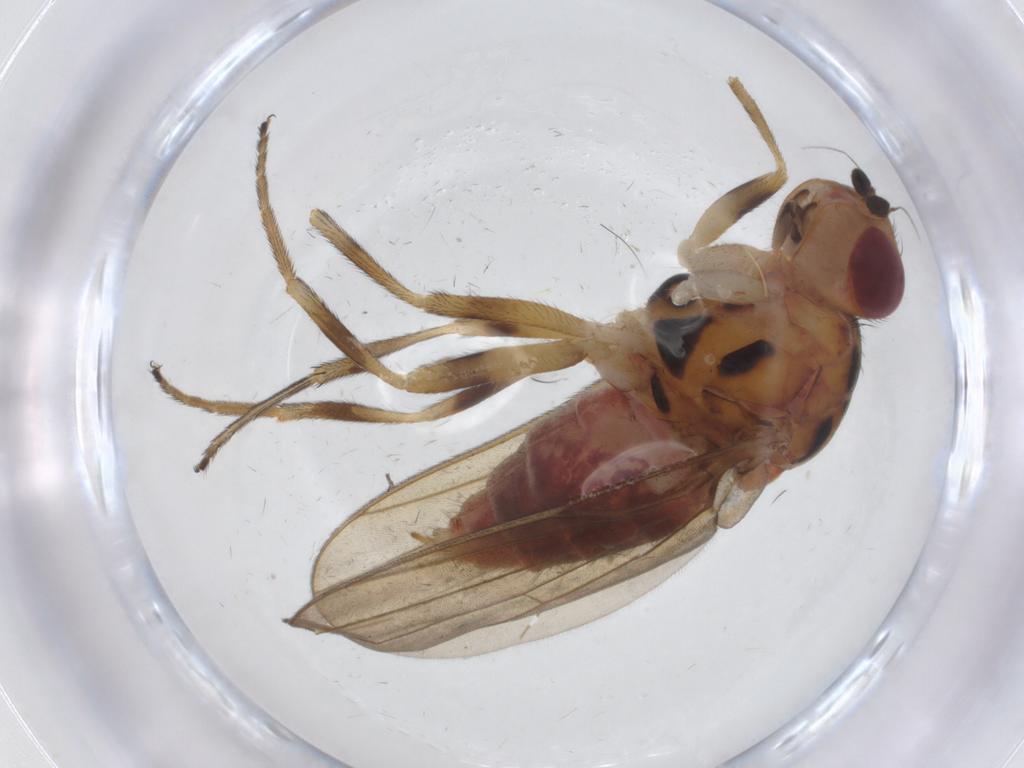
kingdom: Animalia
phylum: Arthropoda
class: Insecta
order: Diptera
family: Chloropidae
